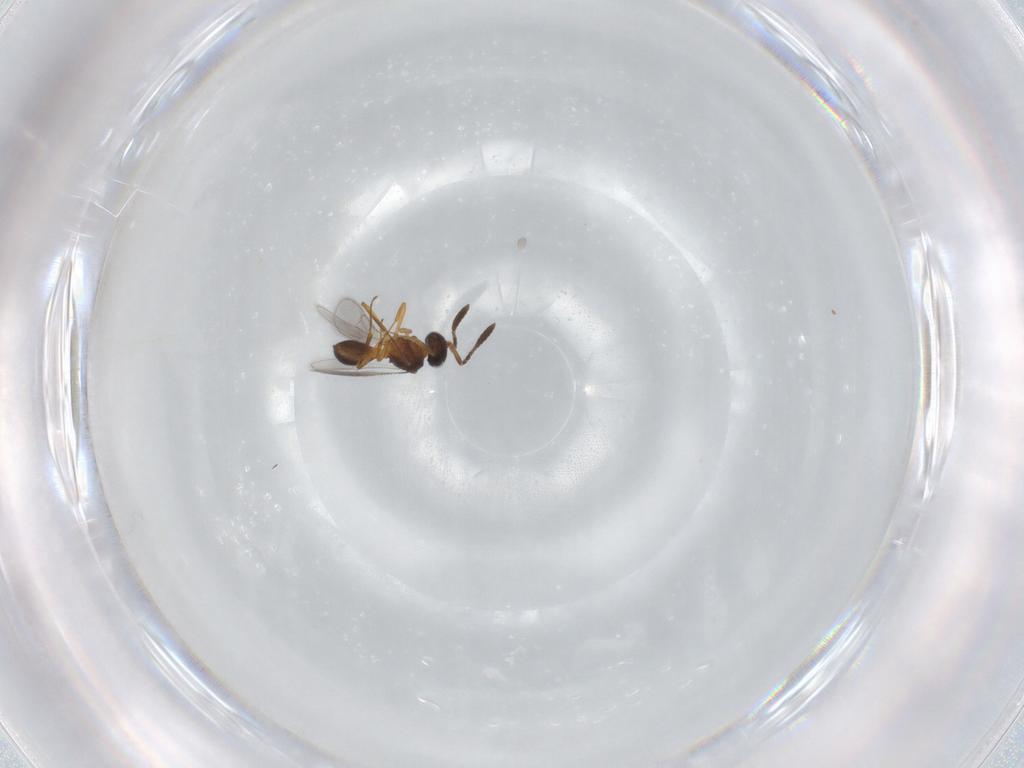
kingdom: Animalia
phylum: Arthropoda
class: Insecta
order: Hymenoptera
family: Scelionidae
